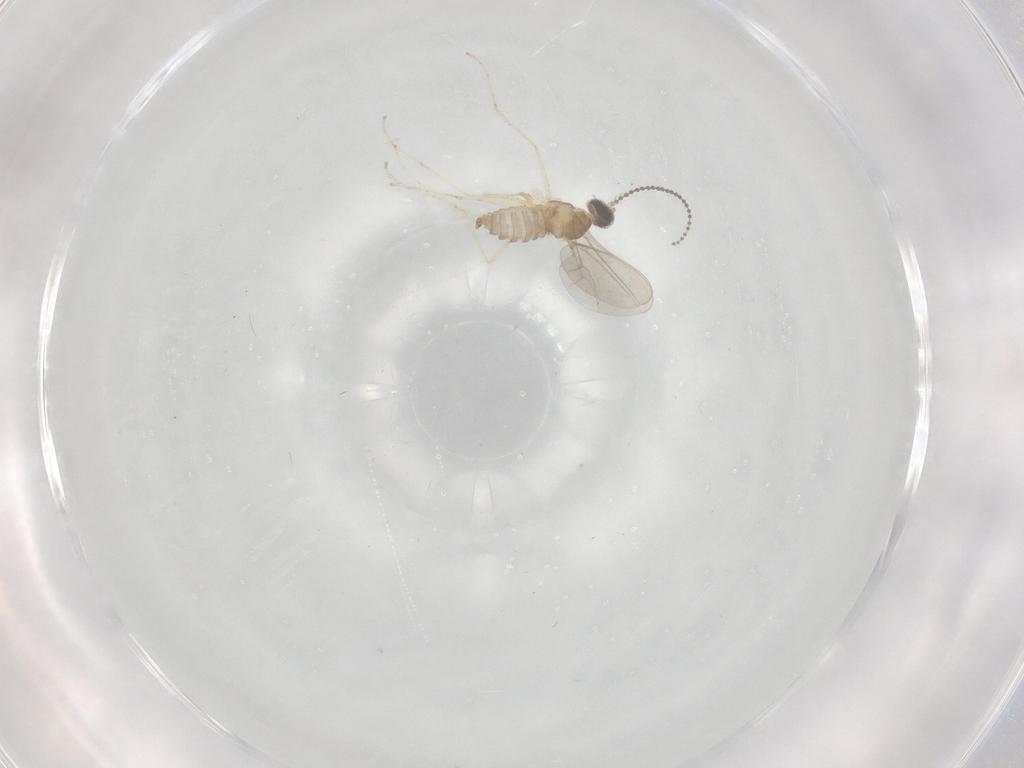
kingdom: Animalia
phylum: Arthropoda
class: Insecta
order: Diptera
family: Cecidomyiidae
